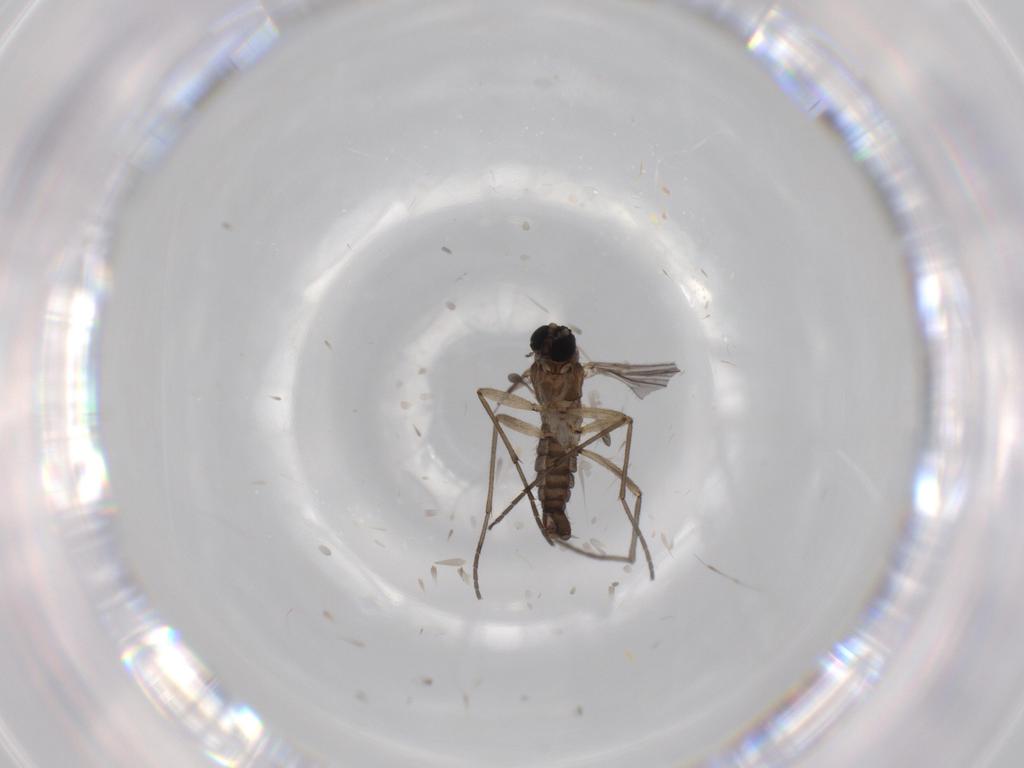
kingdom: Animalia
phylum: Arthropoda
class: Insecta
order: Diptera
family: Sciaridae
